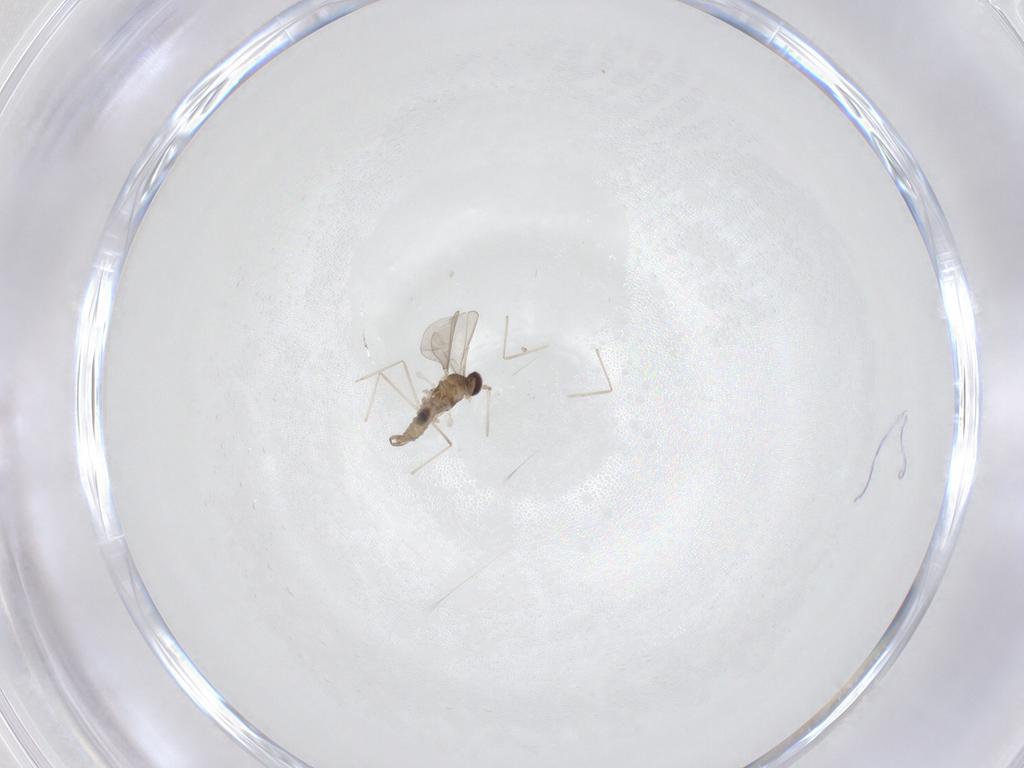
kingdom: Animalia
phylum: Arthropoda
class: Insecta
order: Diptera
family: Cecidomyiidae
